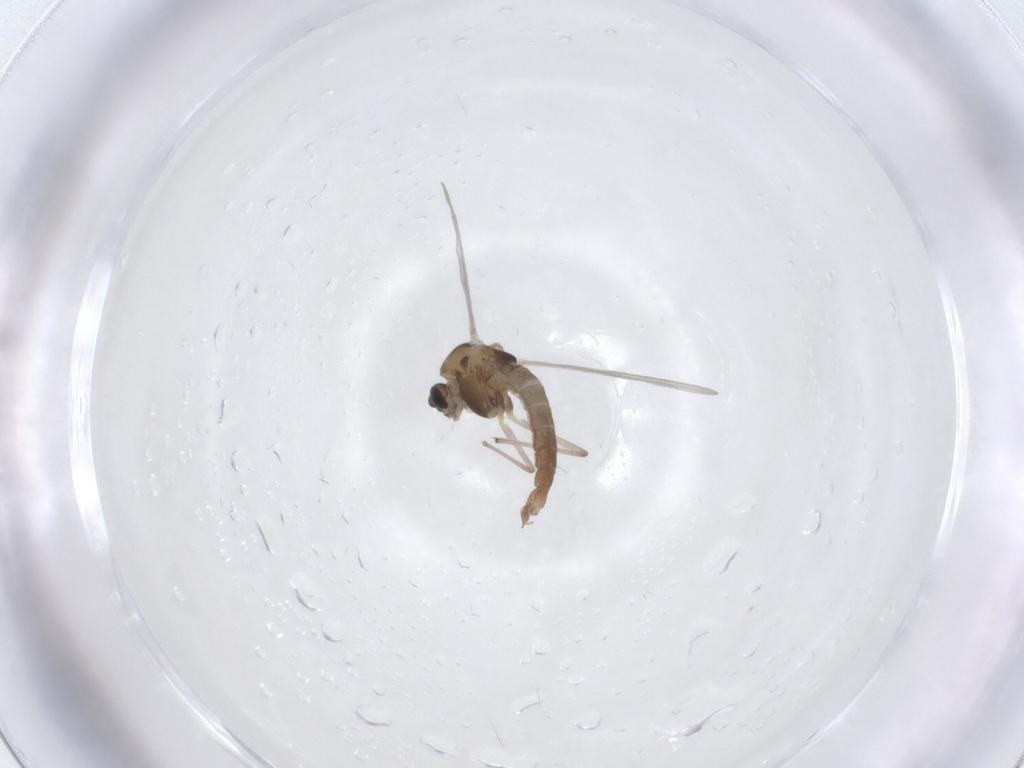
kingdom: Animalia
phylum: Arthropoda
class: Insecta
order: Diptera
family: Chironomidae
